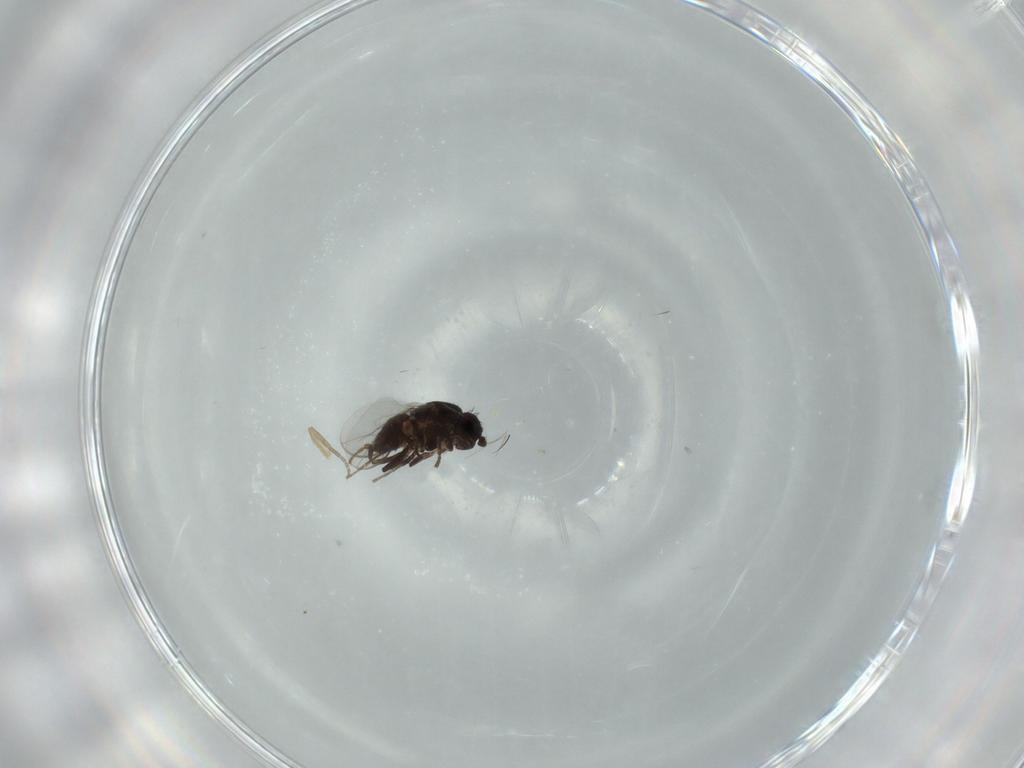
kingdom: Animalia
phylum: Arthropoda
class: Insecta
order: Diptera
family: Sphaeroceridae
